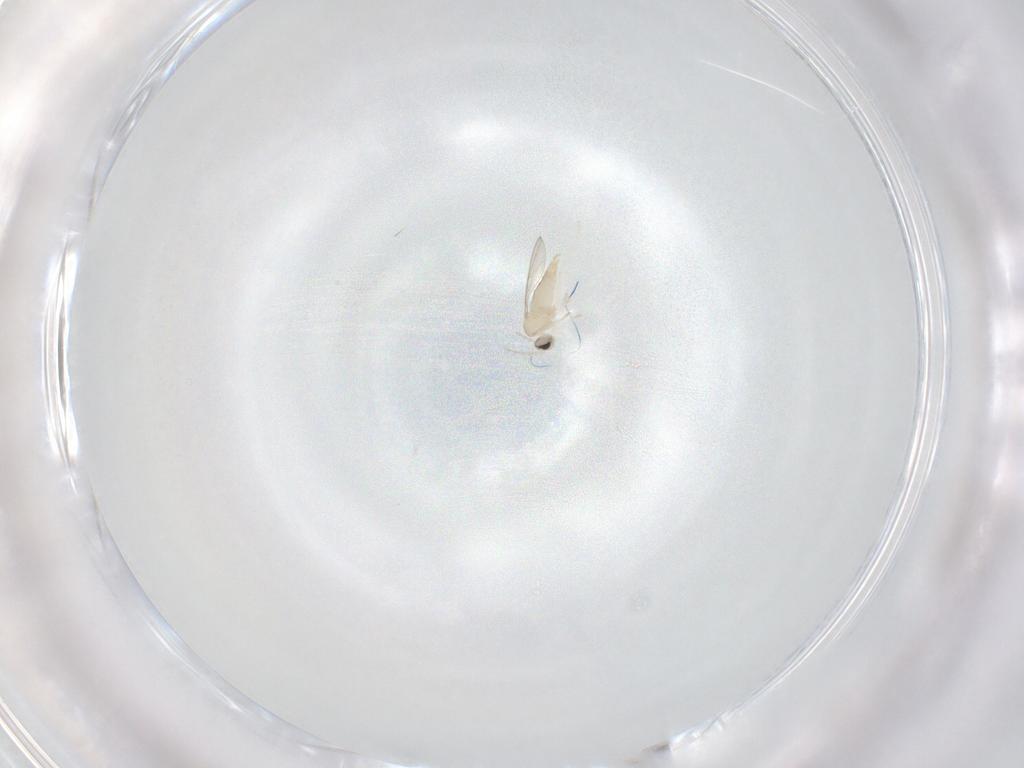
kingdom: Animalia
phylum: Arthropoda
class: Insecta
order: Diptera
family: Cecidomyiidae
